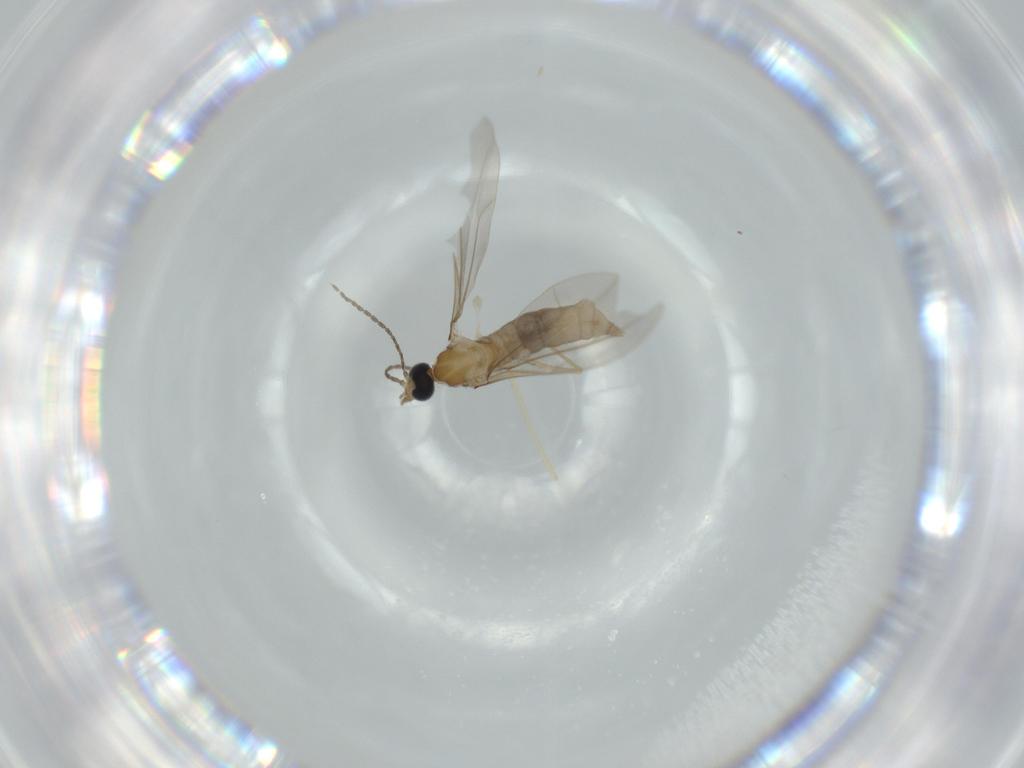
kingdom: Animalia
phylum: Arthropoda
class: Insecta
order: Diptera
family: Cecidomyiidae
